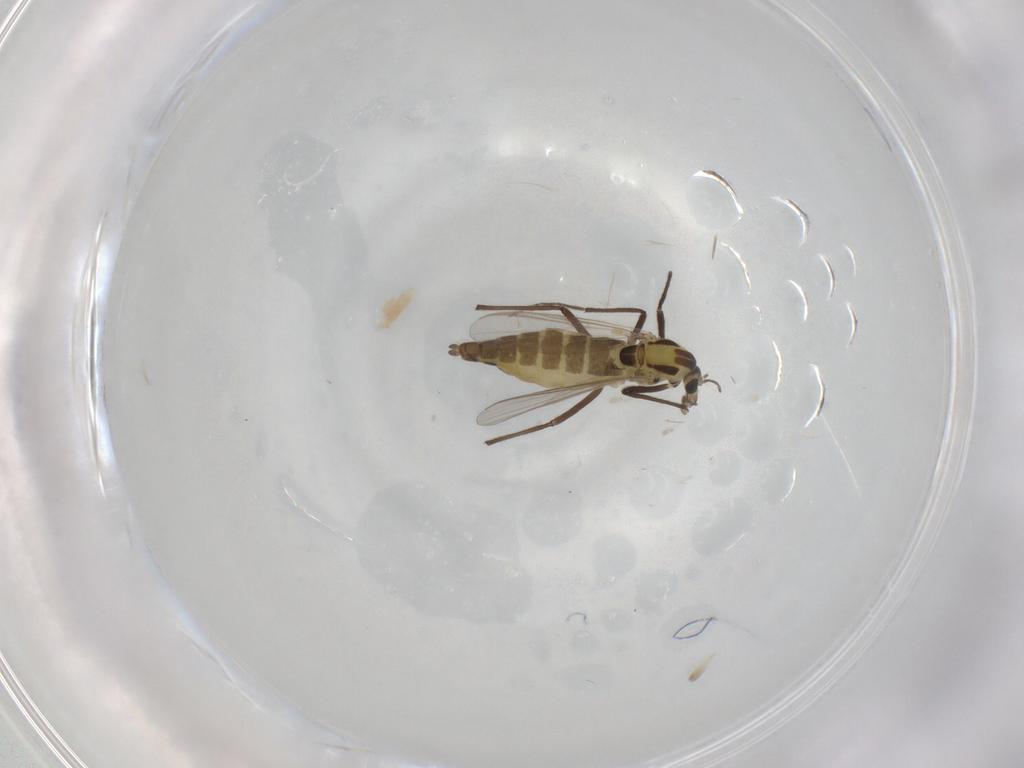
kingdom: Animalia
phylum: Arthropoda
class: Insecta
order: Diptera
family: Chironomidae
